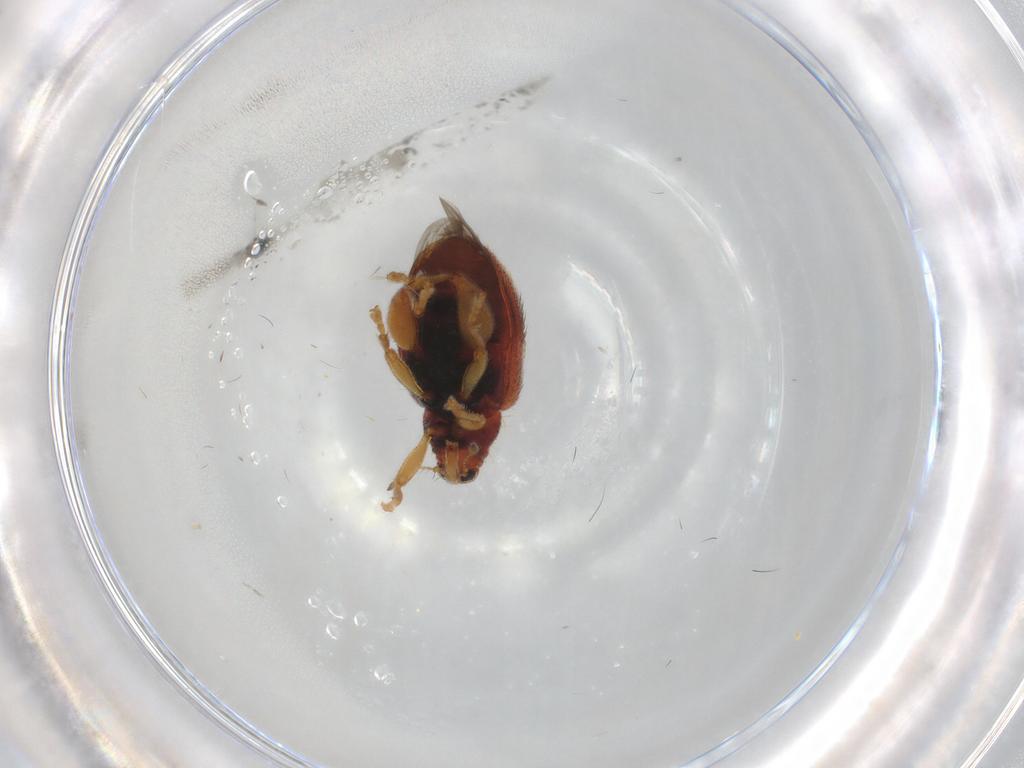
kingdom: Animalia
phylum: Arthropoda
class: Insecta
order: Coleoptera
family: Curculionidae
